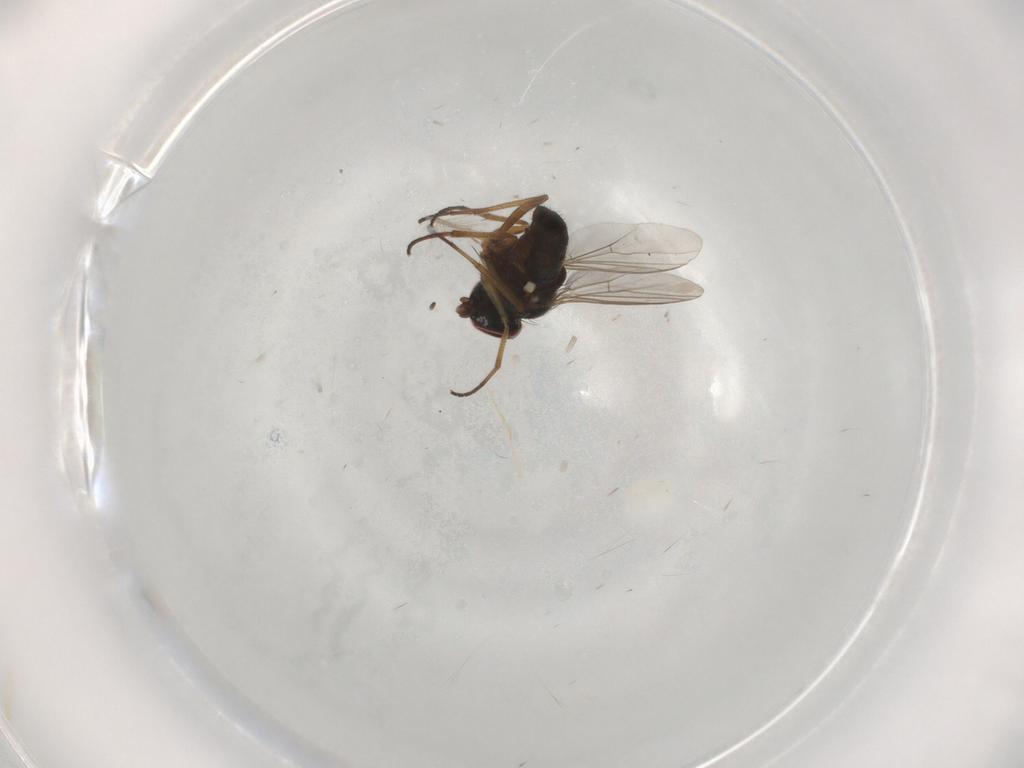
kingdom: Animalia
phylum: Arthropoda
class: Insecta
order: Diptera
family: Dolichopodidae
